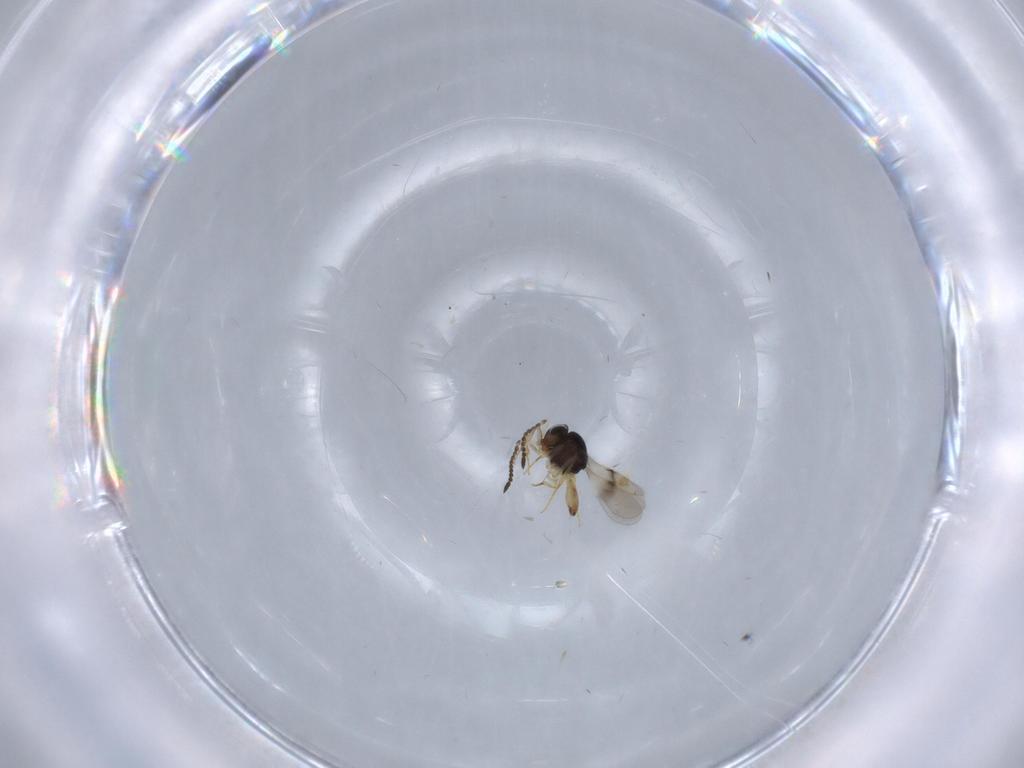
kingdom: Animalia
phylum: Arthropoda
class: Insecta
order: Hymenoptera
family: Scelionidae
